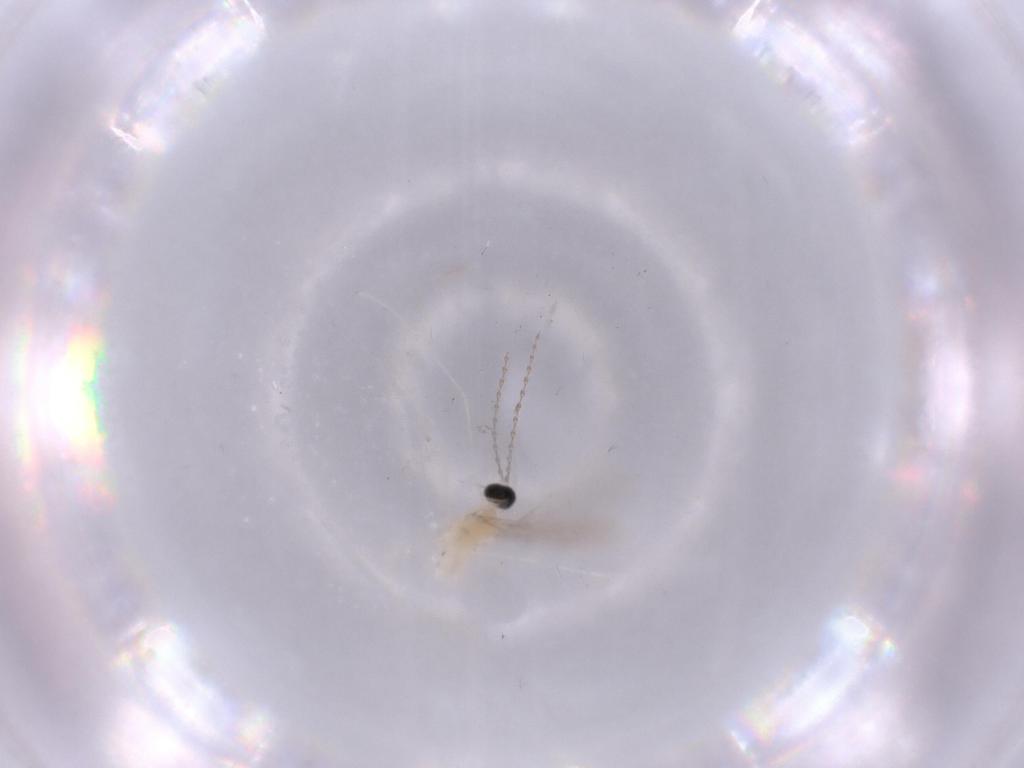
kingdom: Animalia
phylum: Arthropoda
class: Insecta
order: Diptera
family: Cecidomyiidae
